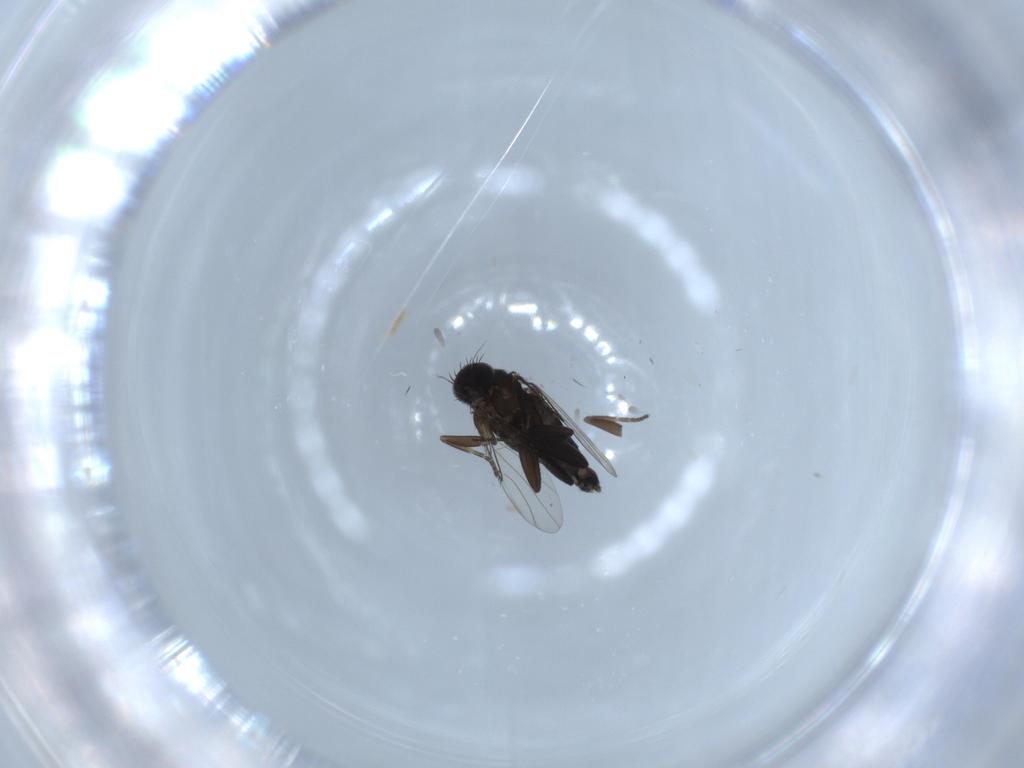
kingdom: Animalia
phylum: Arthropoda
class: Insecta
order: Diptera
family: Phoridae
